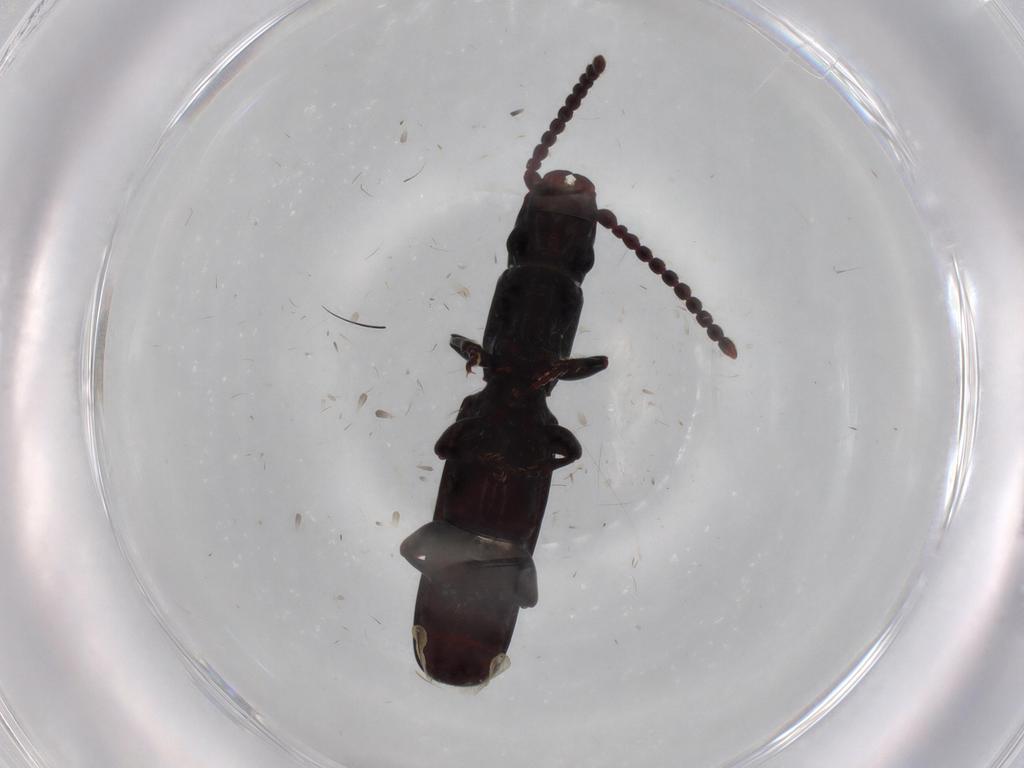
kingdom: Animalia
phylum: Arthropoda
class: Insecta
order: Coleoptera
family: Passandridae
